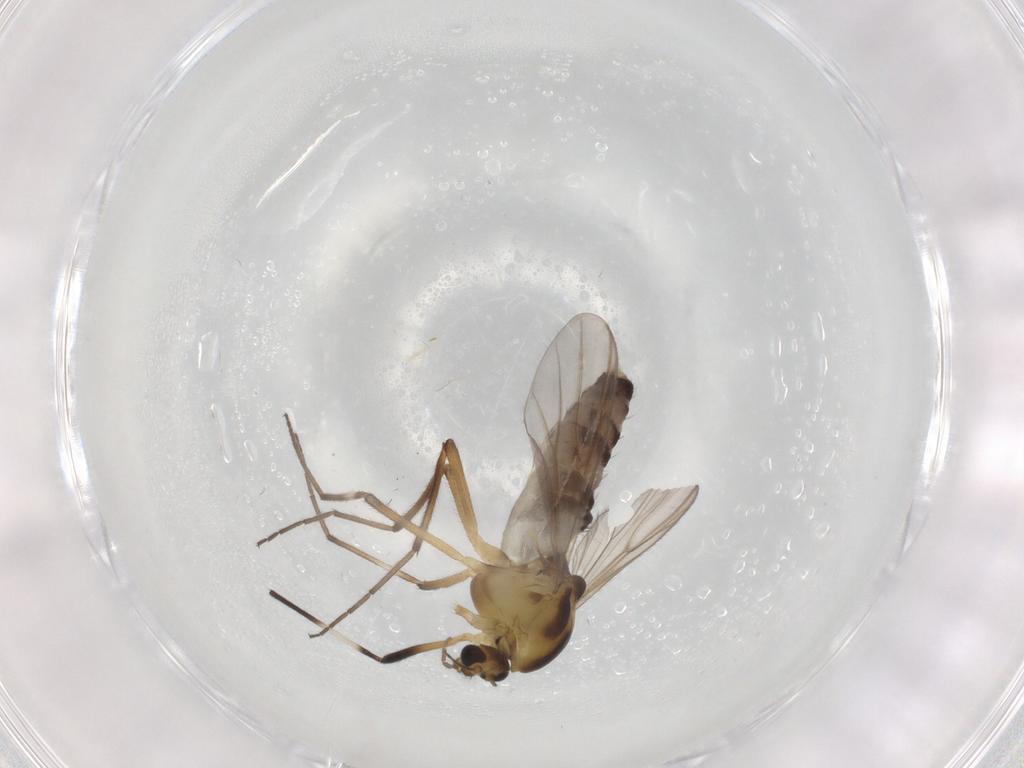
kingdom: Animalia
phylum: Arthropoda
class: Insecta
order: Diptera
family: Chironomidae
